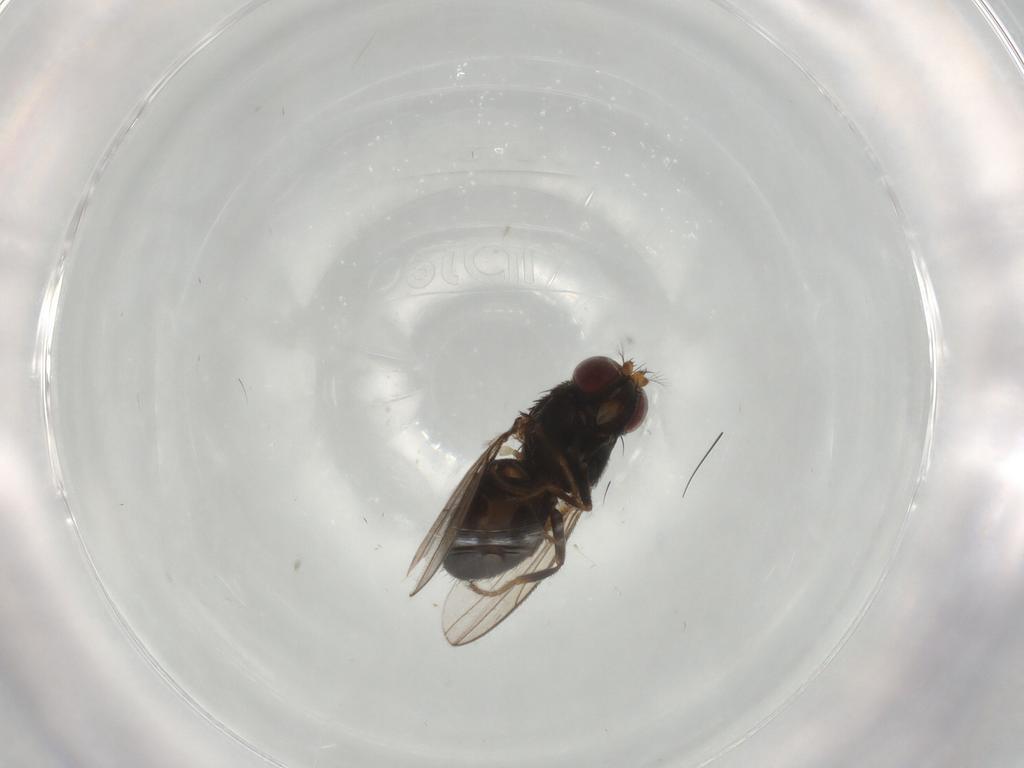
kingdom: Animalia
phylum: Arthropoda
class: Insecta
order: Diptera
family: Ephydridae
